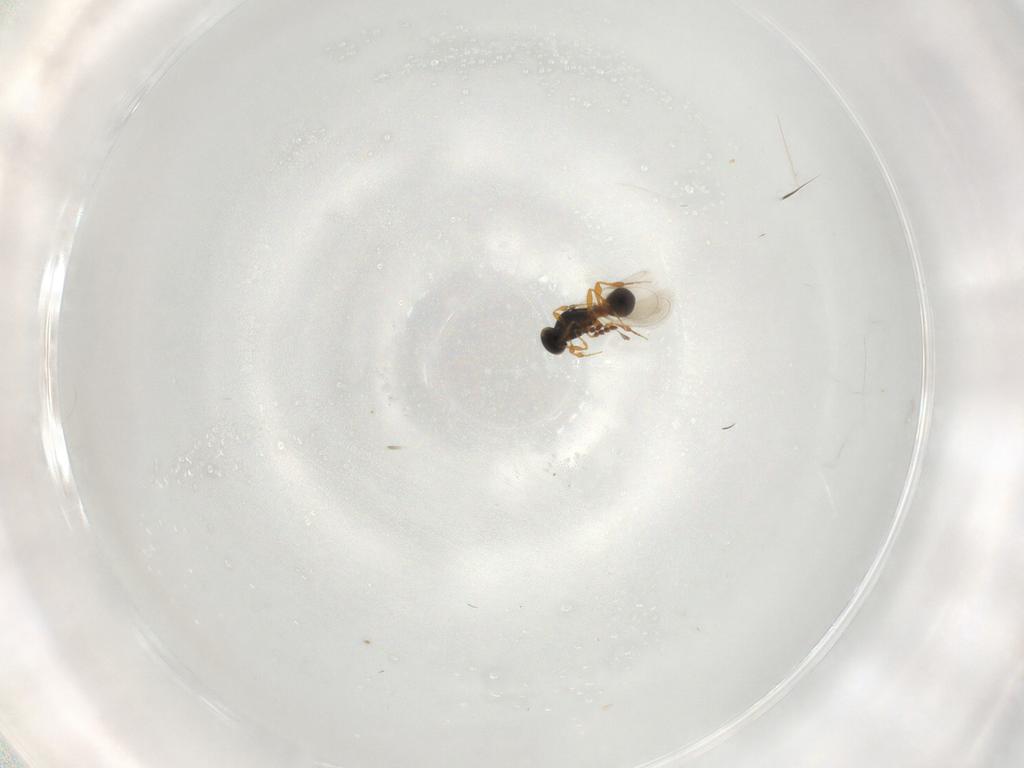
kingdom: Animalia
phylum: Arthropoda
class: Insecta
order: Hymenoptera
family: Platygastridae
